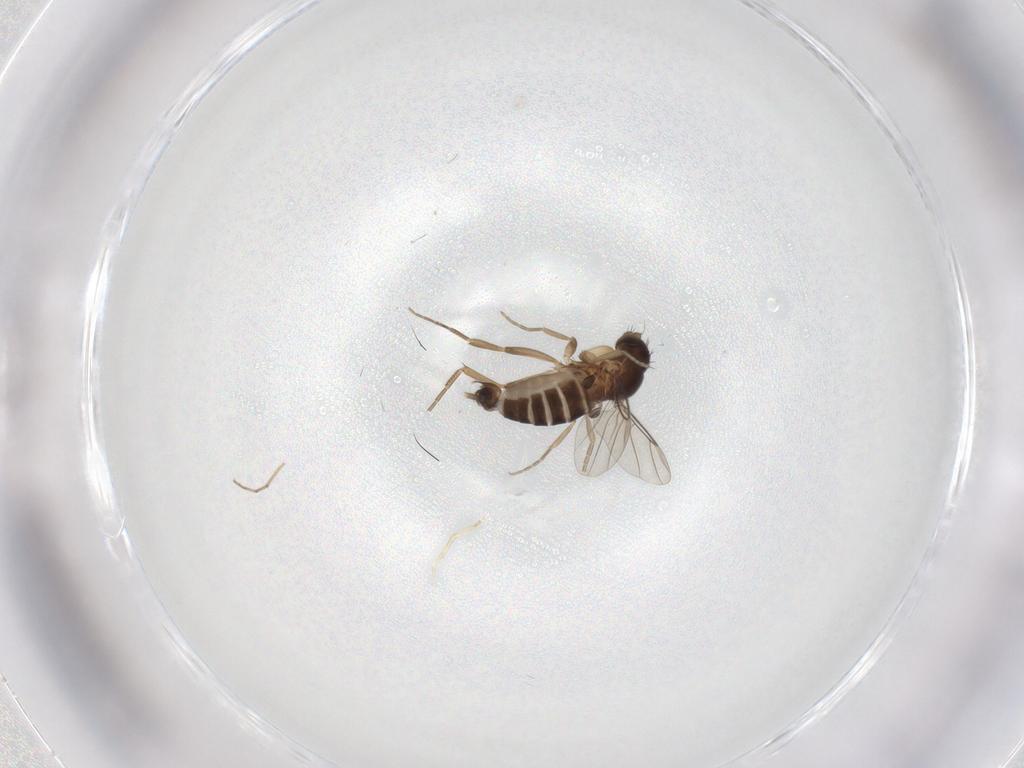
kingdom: Animalia
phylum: Arthropoda
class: Insecta
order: Diptera
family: Phoridae
